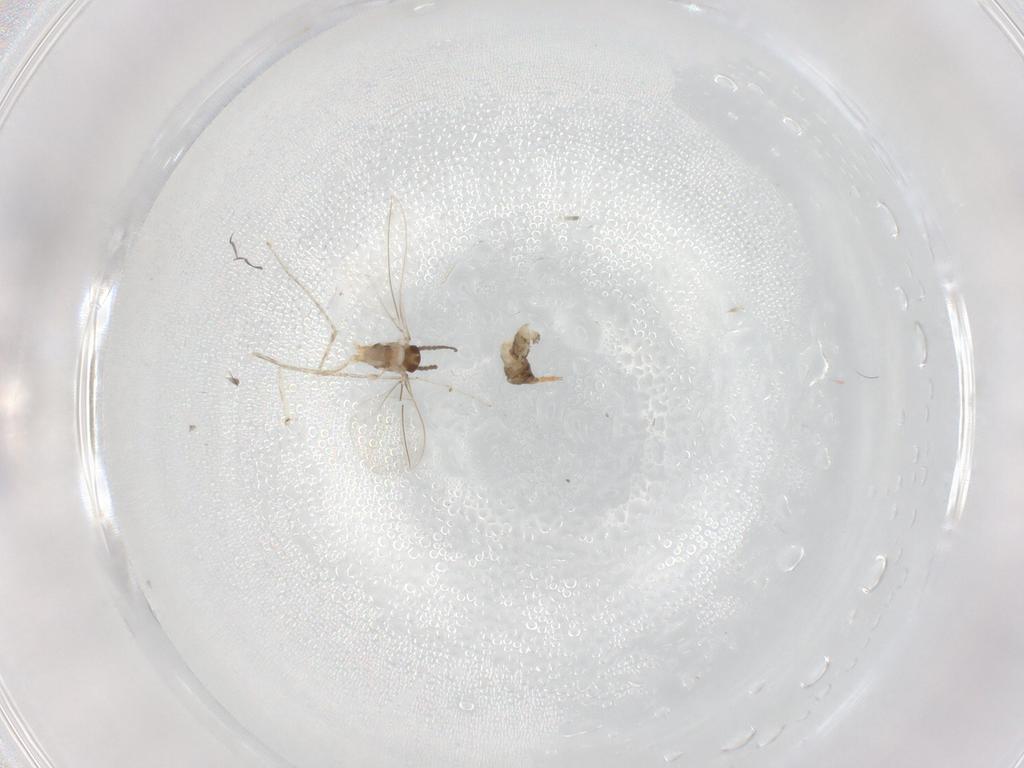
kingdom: Animalia
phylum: Arthropoda
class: Insecta
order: Diptera
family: Cecidomyiidae
